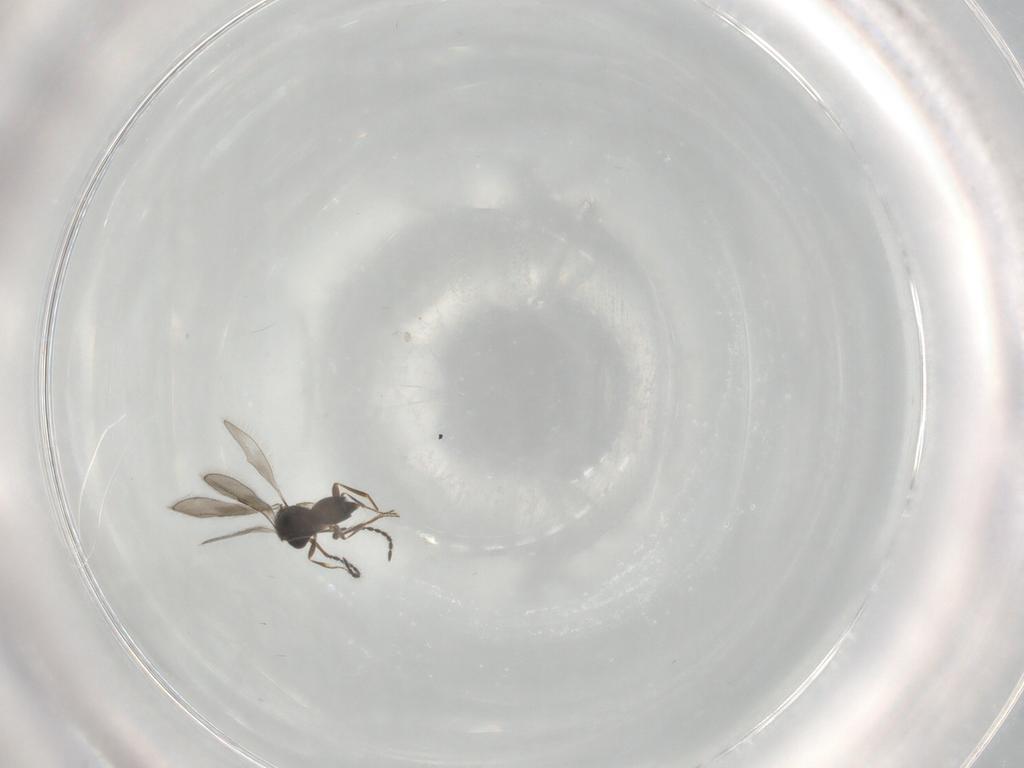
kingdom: Animalia
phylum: Arthropoda
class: Insecta
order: Hymenoptera
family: Ceraphronidae
